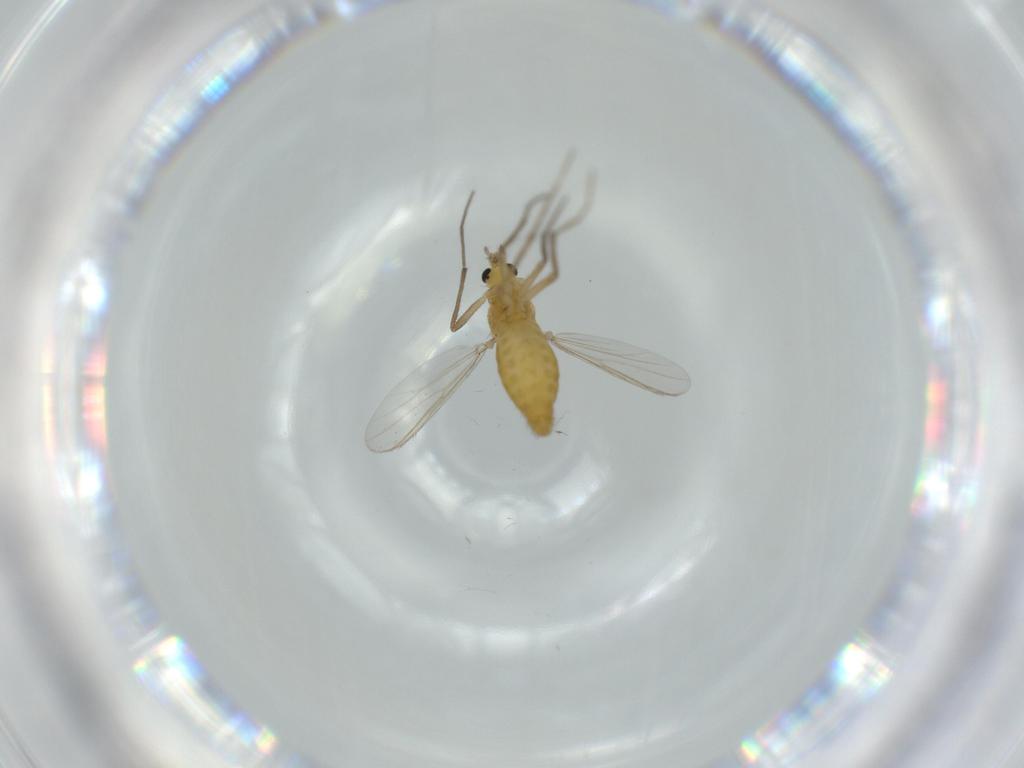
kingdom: Animalia
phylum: Arthropoda
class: Insecta
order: Diptera
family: Chironomidae
